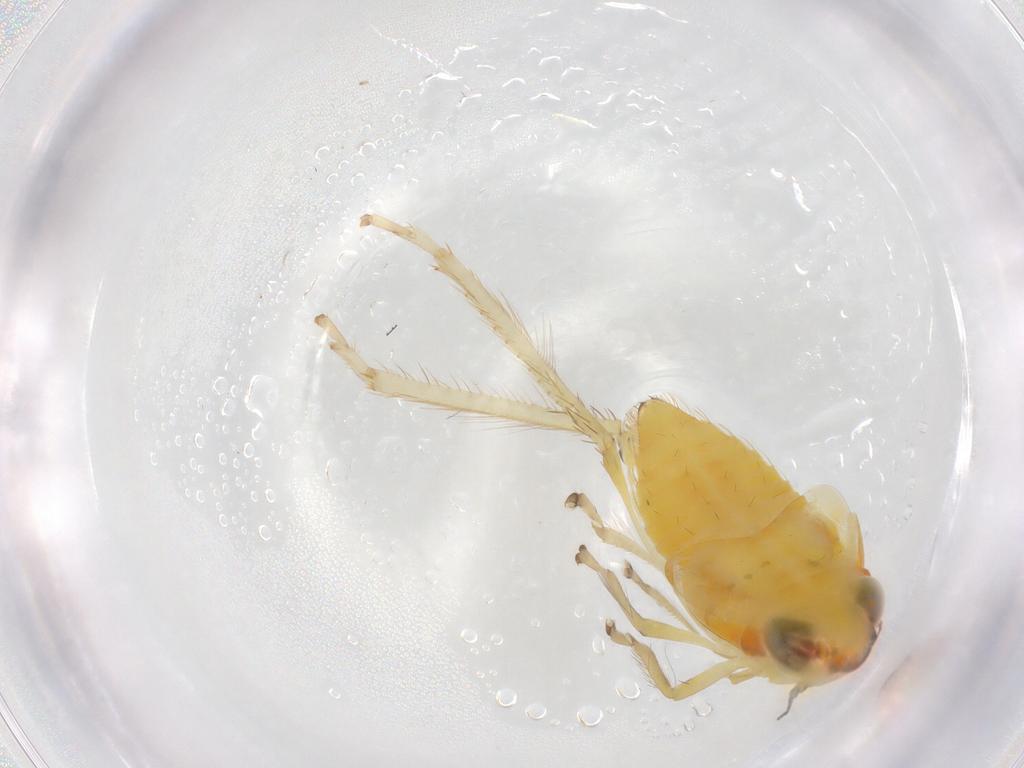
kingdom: Animalia
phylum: Arthropoda
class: Insecta
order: Hemiptera
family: Cicadellidae
